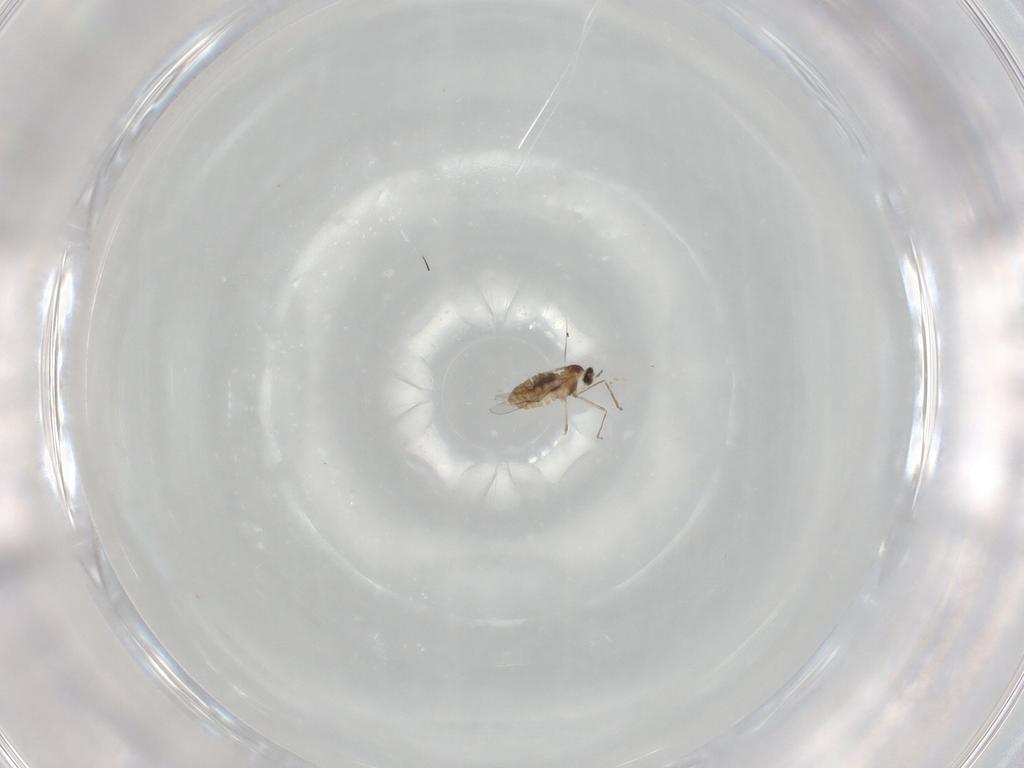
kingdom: Animalia
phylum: Arthropoda
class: Insecta
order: Diptera
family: Cecidomyiidae
